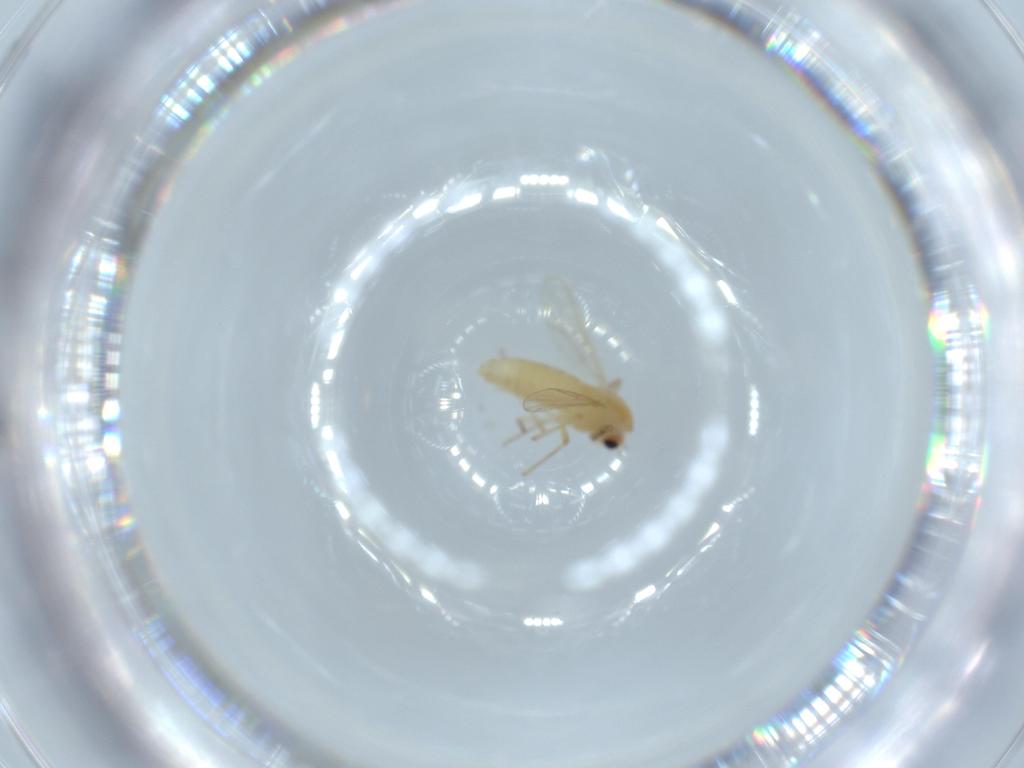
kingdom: Animalia
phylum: Arthropoda
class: Insecta
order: Diptera
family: Chironomidae
